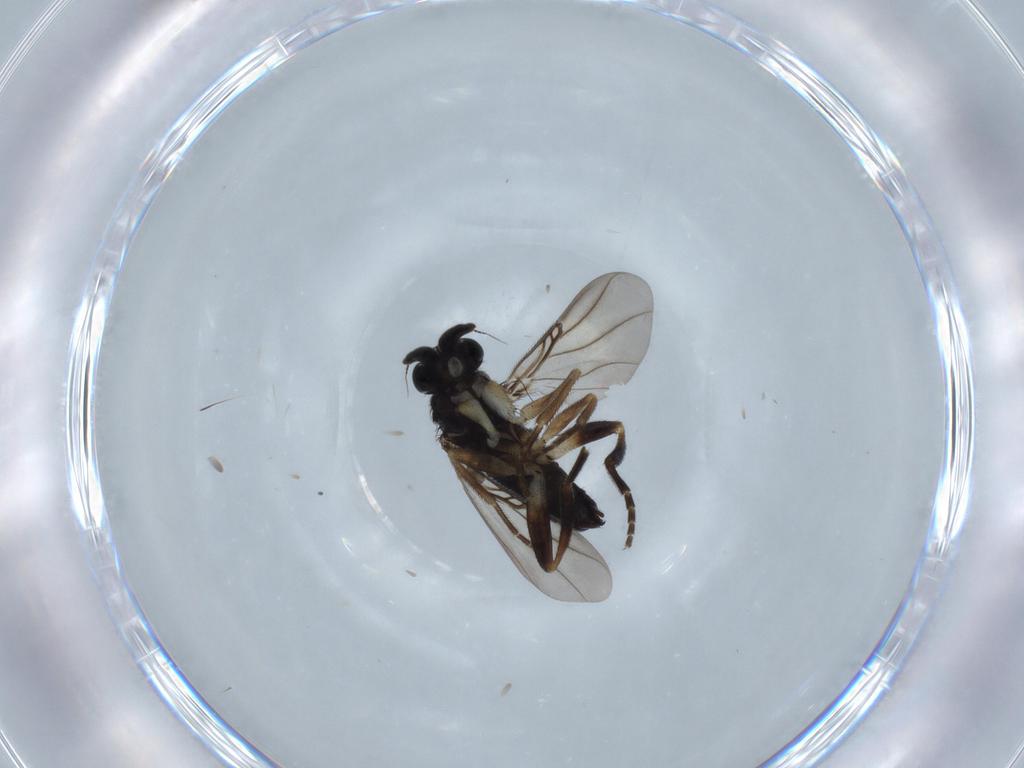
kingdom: Animalia
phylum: Arthropoda
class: Insecta
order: Diptera
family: Phoridae
